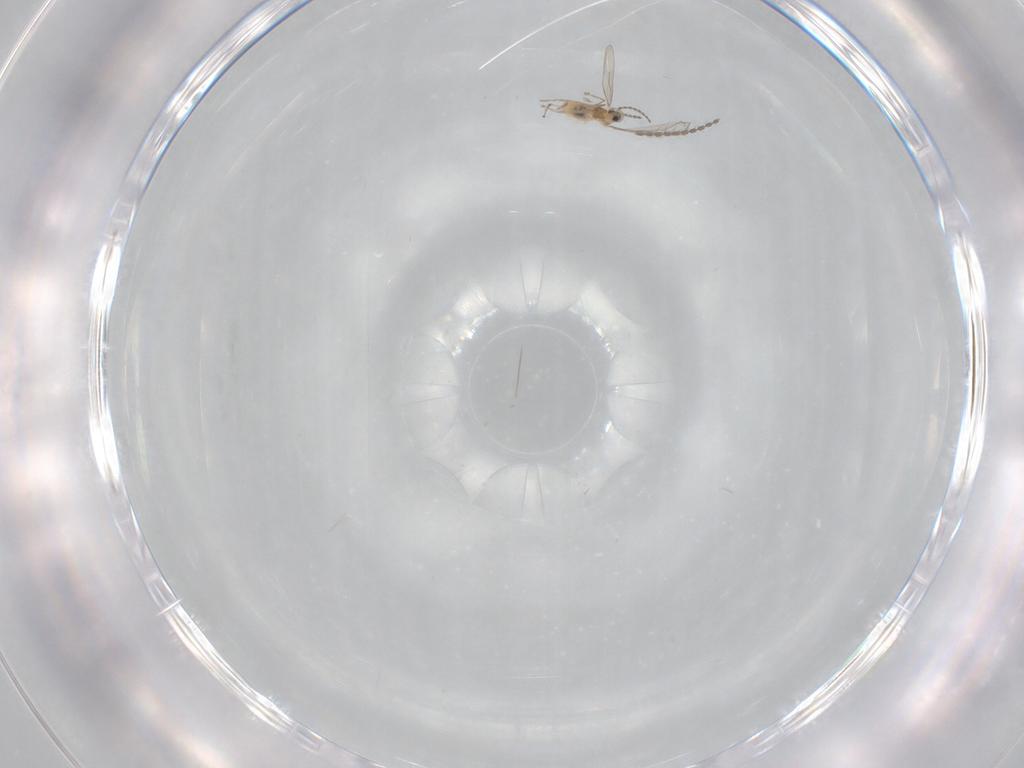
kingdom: Animalia
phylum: Arthropoda
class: Insecta
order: Diptera
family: Cecidomyiidae
